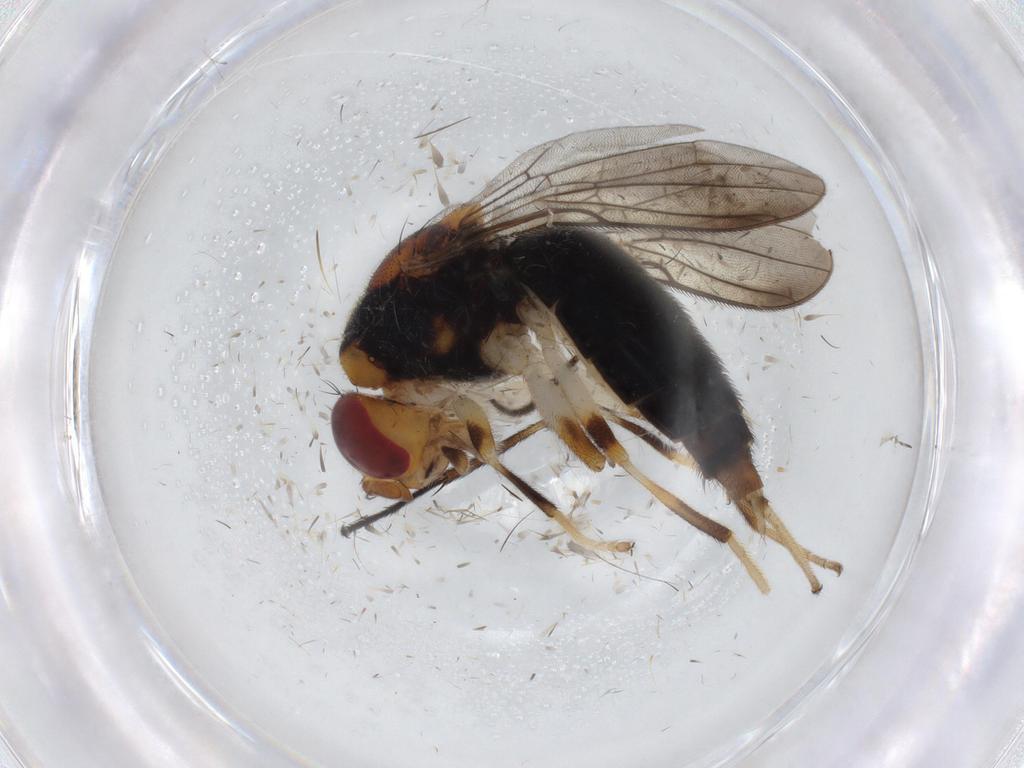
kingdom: Animalia
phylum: Arthropoda
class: Insecta
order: Diptera
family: Psilidae
